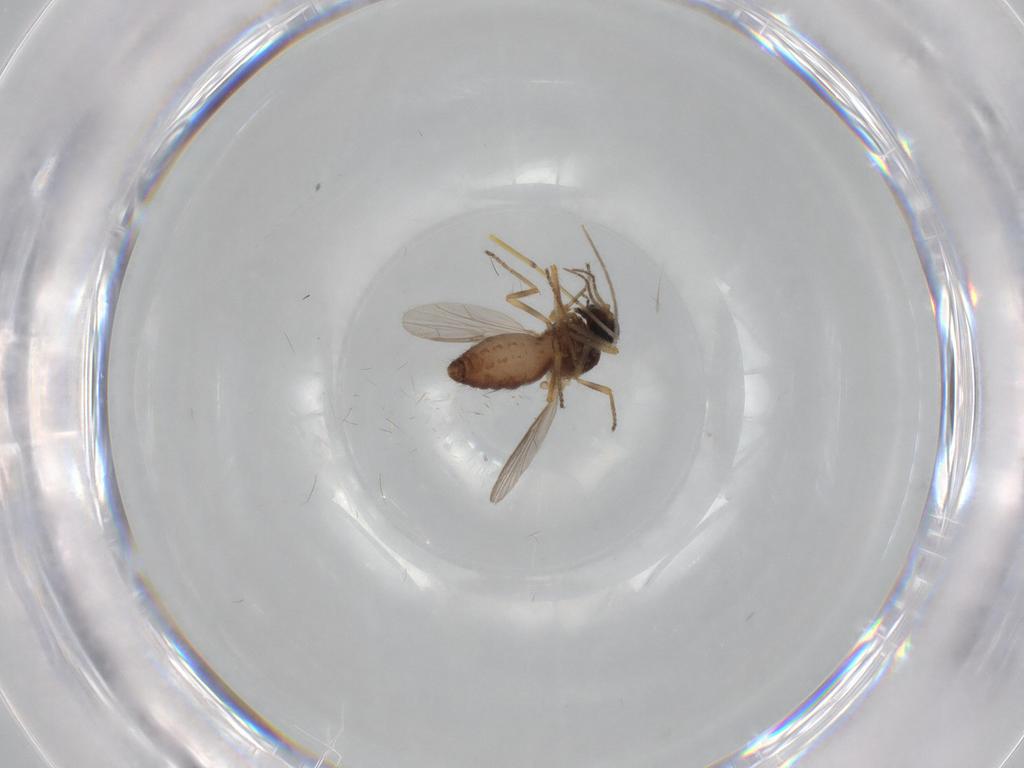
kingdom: Animalia
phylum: Arthropoda
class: Insecta
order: Diptera
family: Ceratopogonidae
